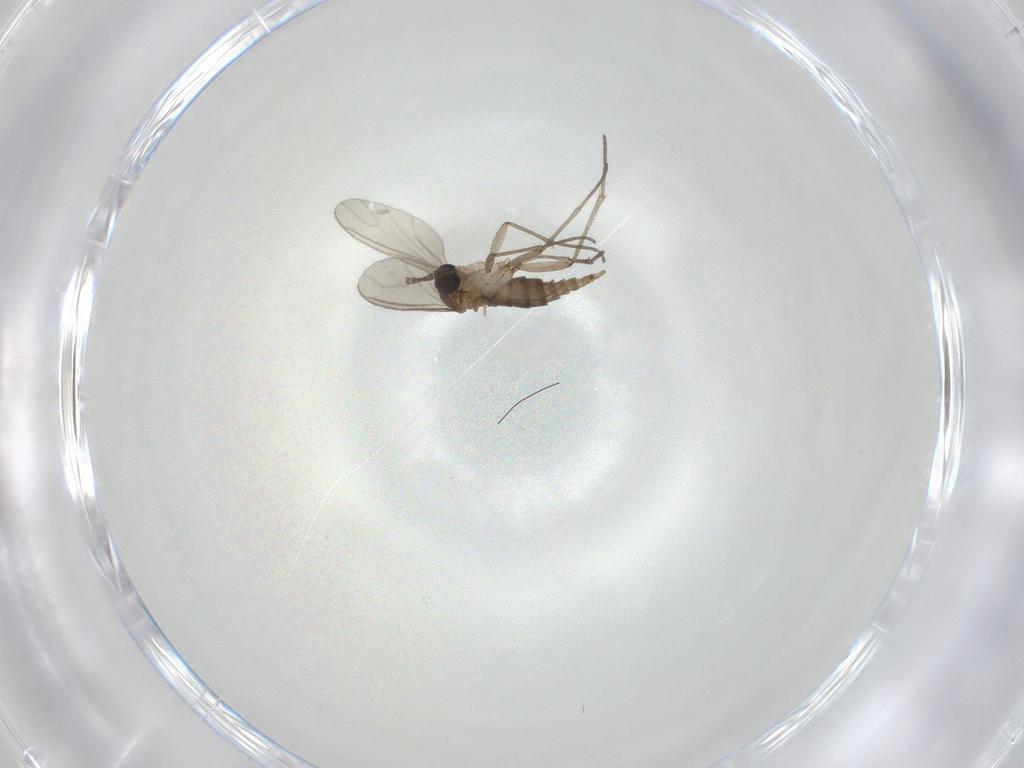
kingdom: Animalia
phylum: Arthropoda
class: Insecta
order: Diptera
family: Sciaridae
